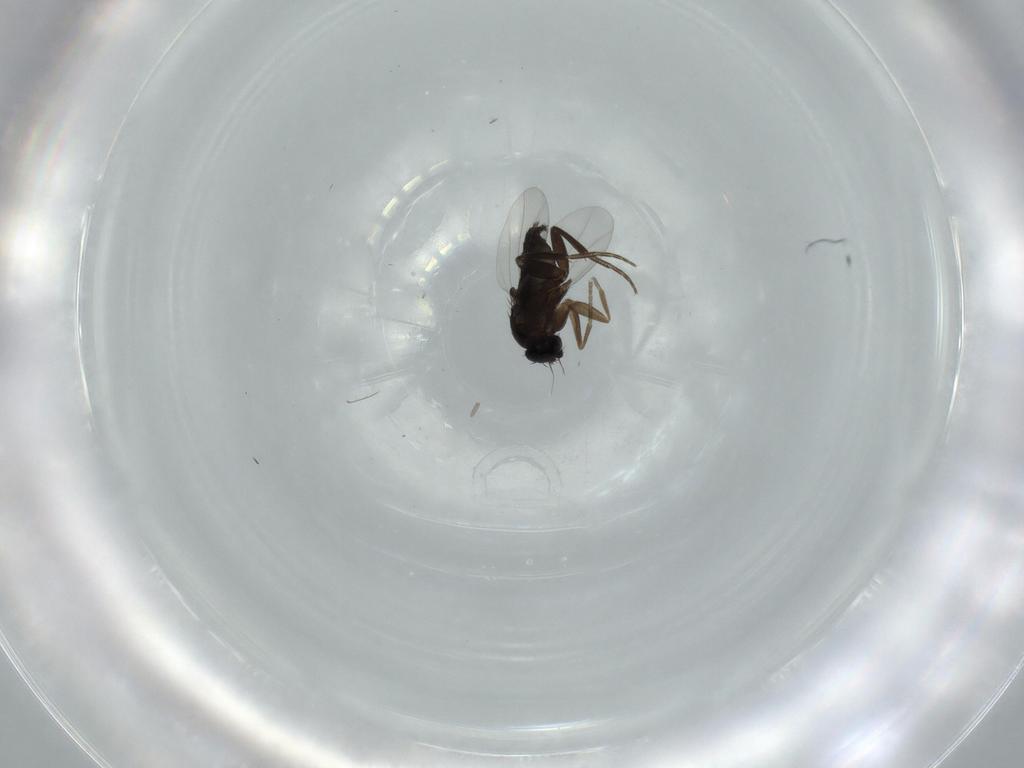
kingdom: Animalia
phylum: Arthropoda
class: Insecta
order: Diptera
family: Phoridae
